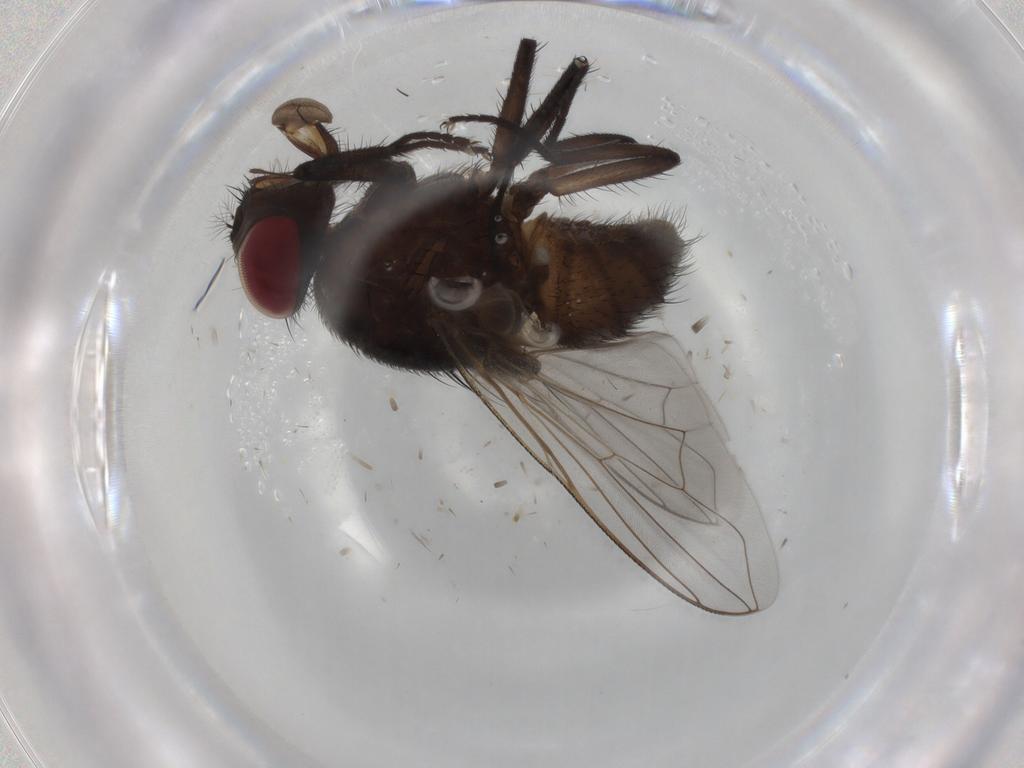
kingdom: Animalia
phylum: Arthropoda
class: Insecta
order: Diptera
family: Muscidae
